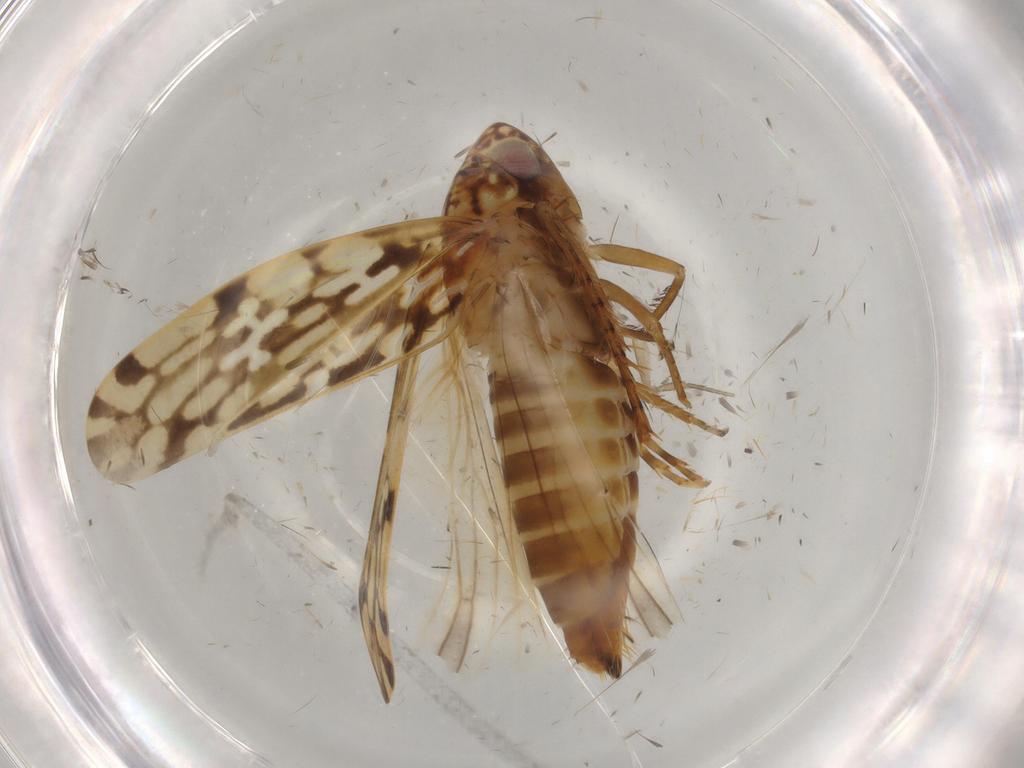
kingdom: Animalia
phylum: Arthropoda
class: Insecta
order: Hemiptera
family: Cicadellidae
